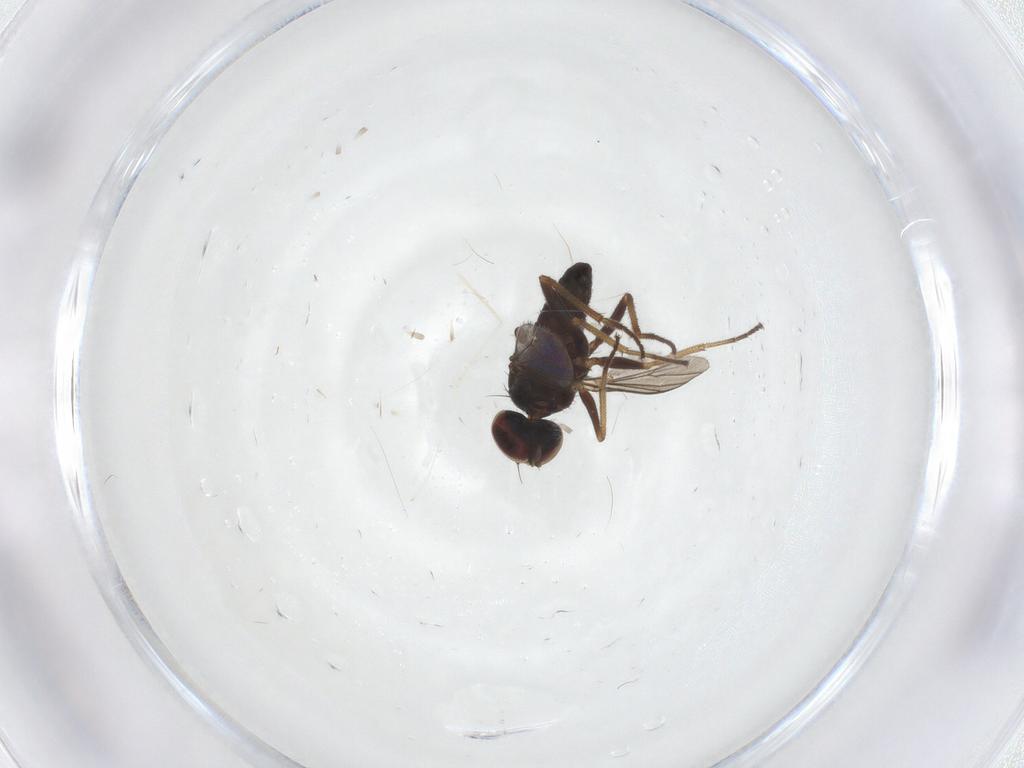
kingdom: Animalia
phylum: Arthropoda
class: Insecta
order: Diptera
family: Dolichopodidae
